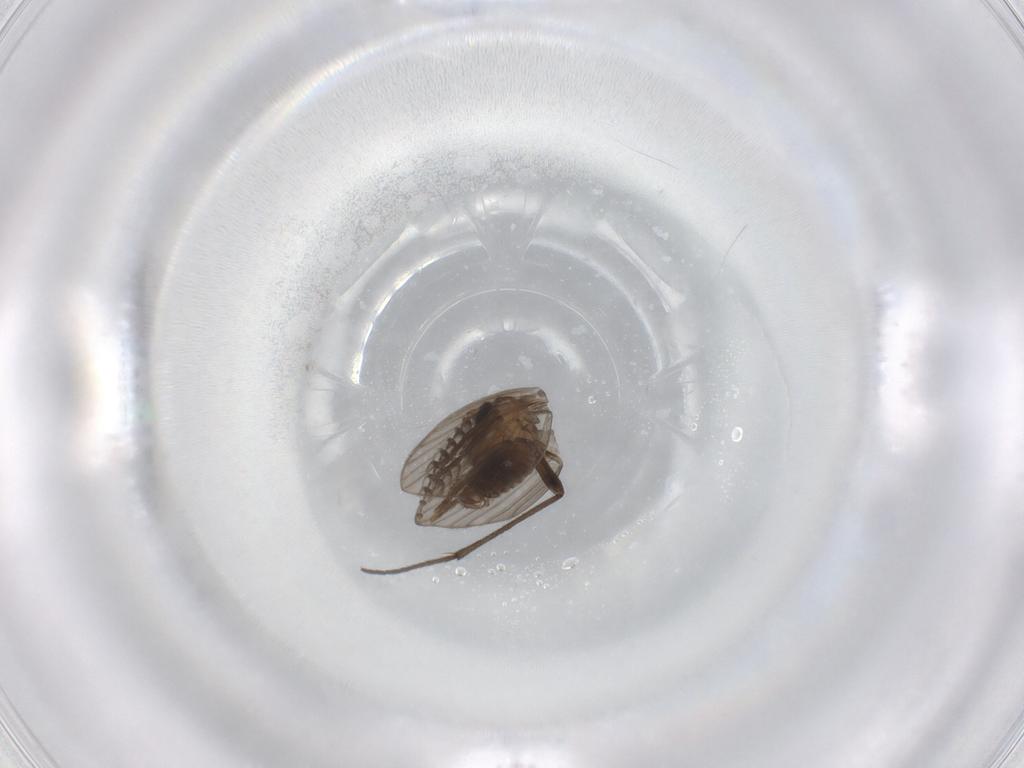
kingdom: Animalia
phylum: Arthropoda
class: Insecta
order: Diptera
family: Psychodidae
